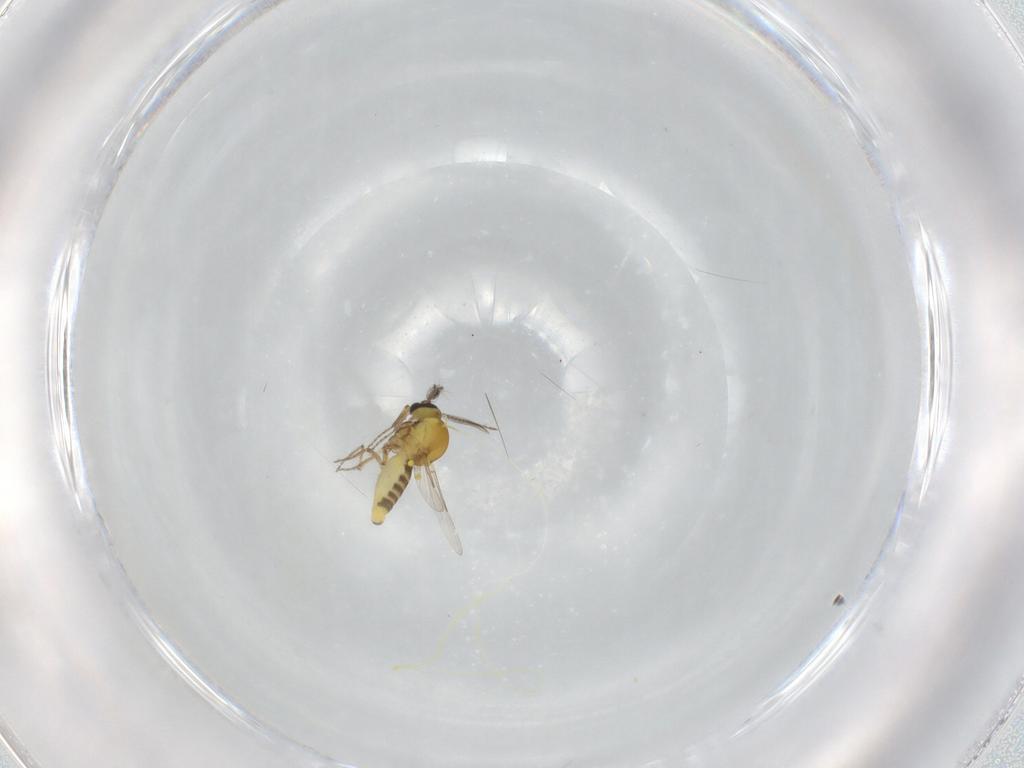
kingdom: Animalia
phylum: Arthropoda
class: Insecta
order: Diptera
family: Ceratopogonidae
